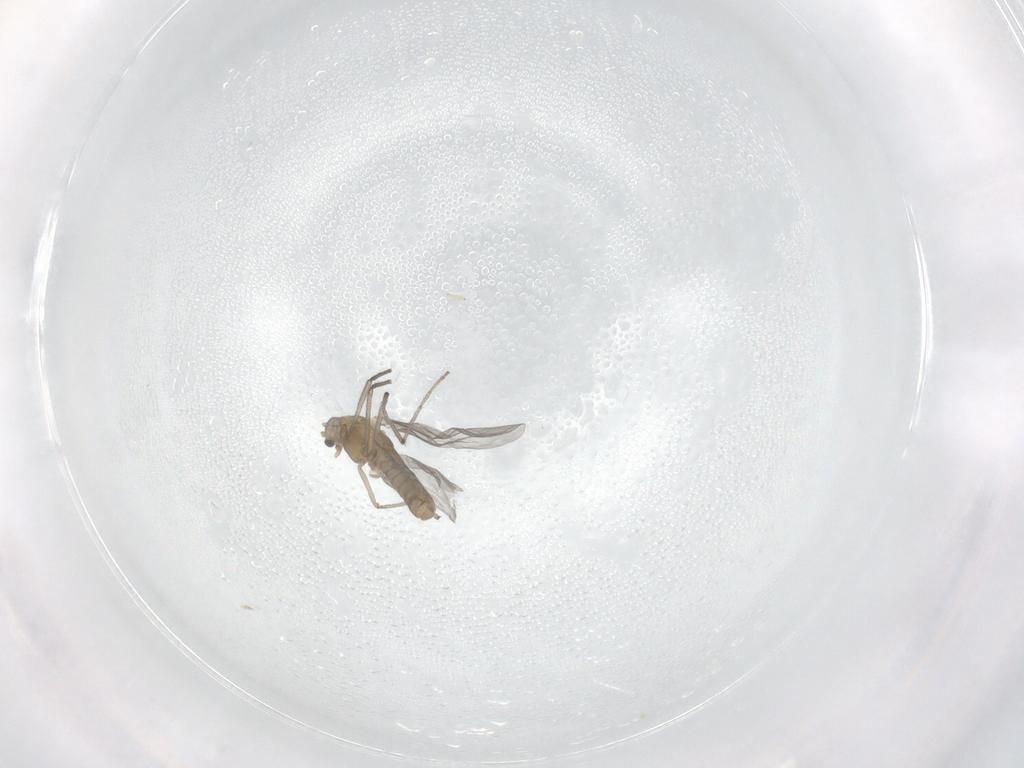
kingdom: Animalia
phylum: Arthropoda
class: Insecta
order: Diptera
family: Chironomidae
